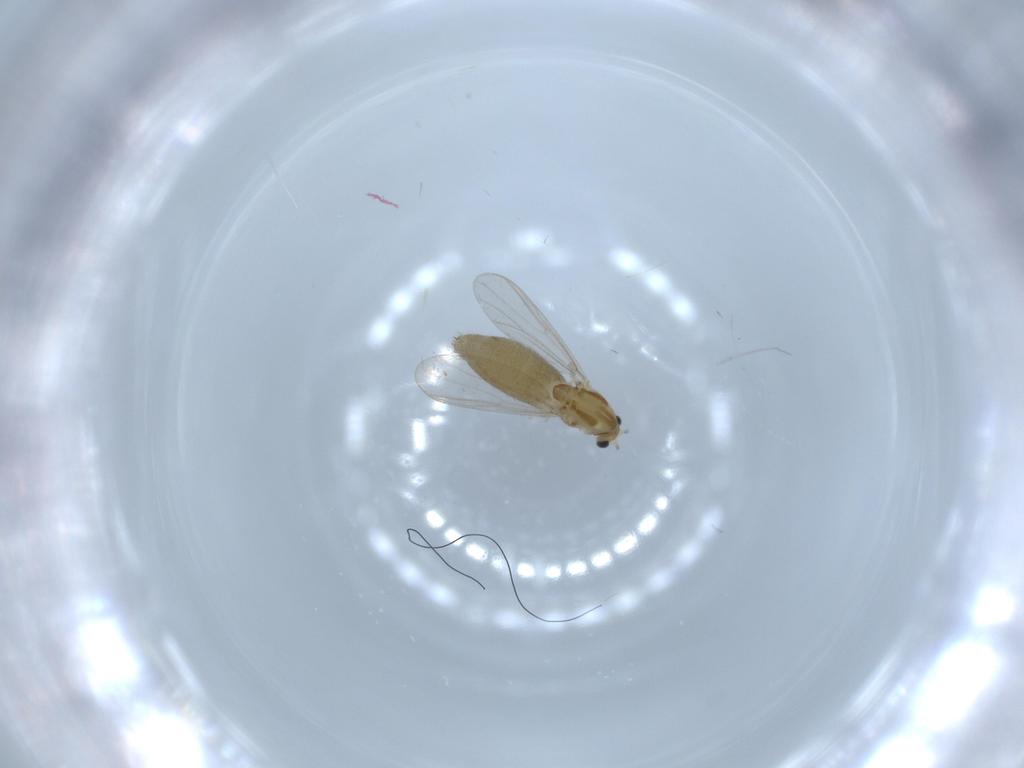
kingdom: Animalia
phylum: Arthropoda
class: Insecta
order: Diptera
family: Chironomidae
